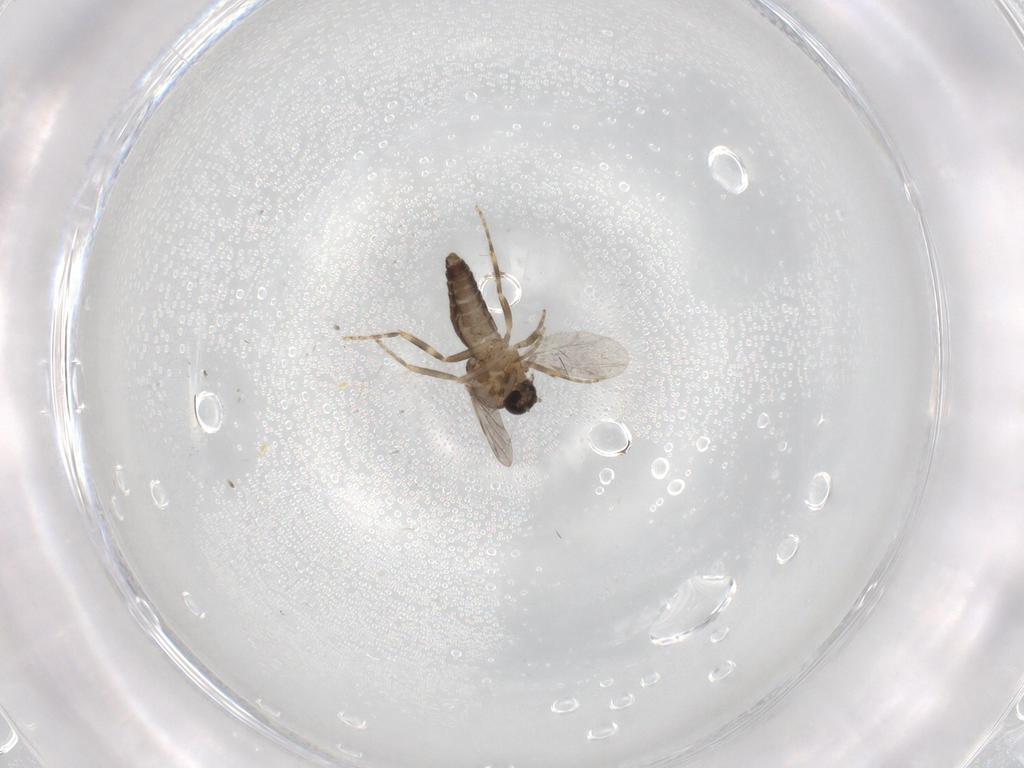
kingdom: Animalia
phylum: Arthropoda
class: Insecta
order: Diptera
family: Ceratopogonidae
